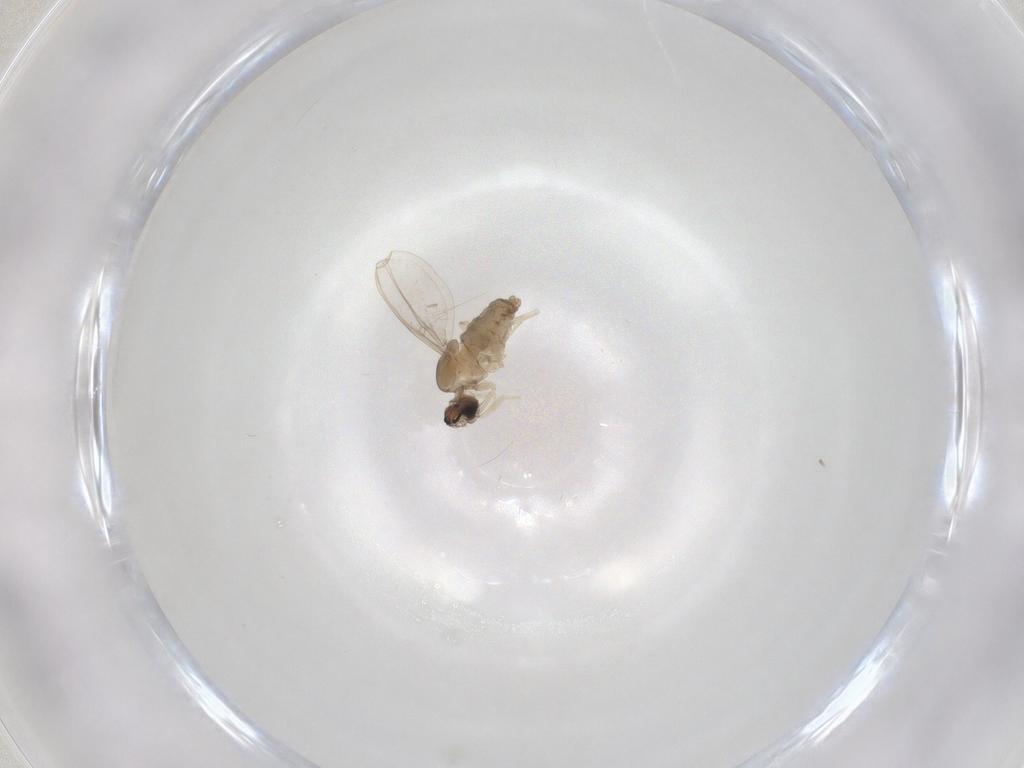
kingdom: Animalia
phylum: Arthropoda
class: Insecta
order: Diptera
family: Cecidomyiidae
